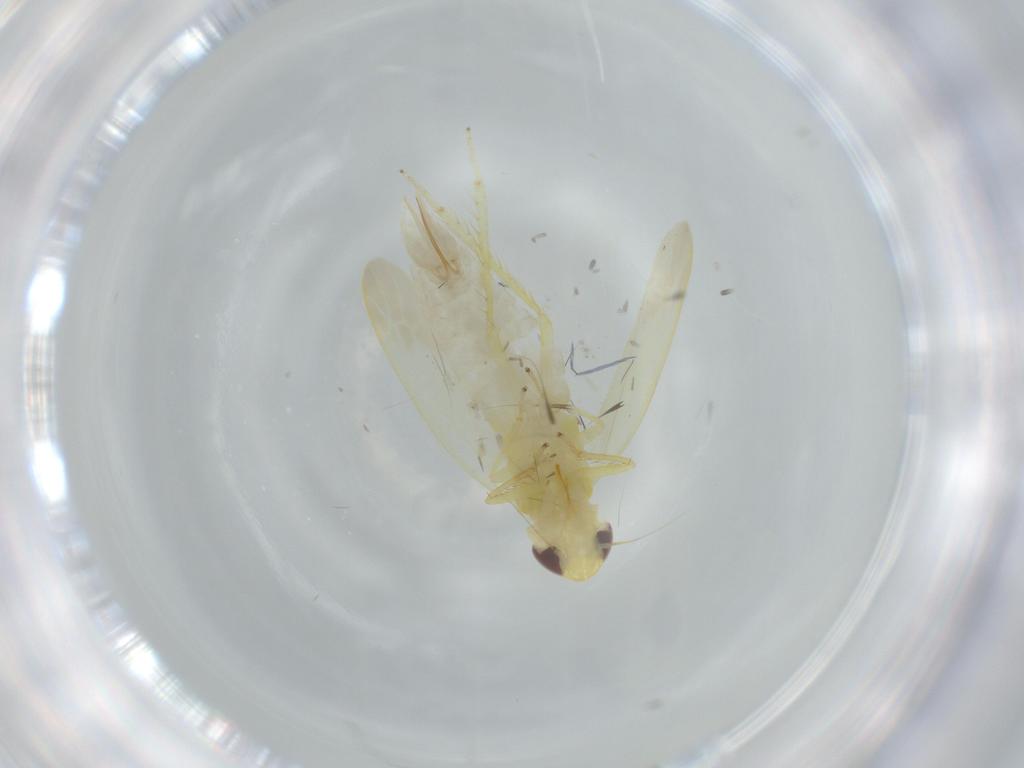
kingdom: Animalia
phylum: Arthropoda
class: Insecta
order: Hemiptera
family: Cicadellidae
